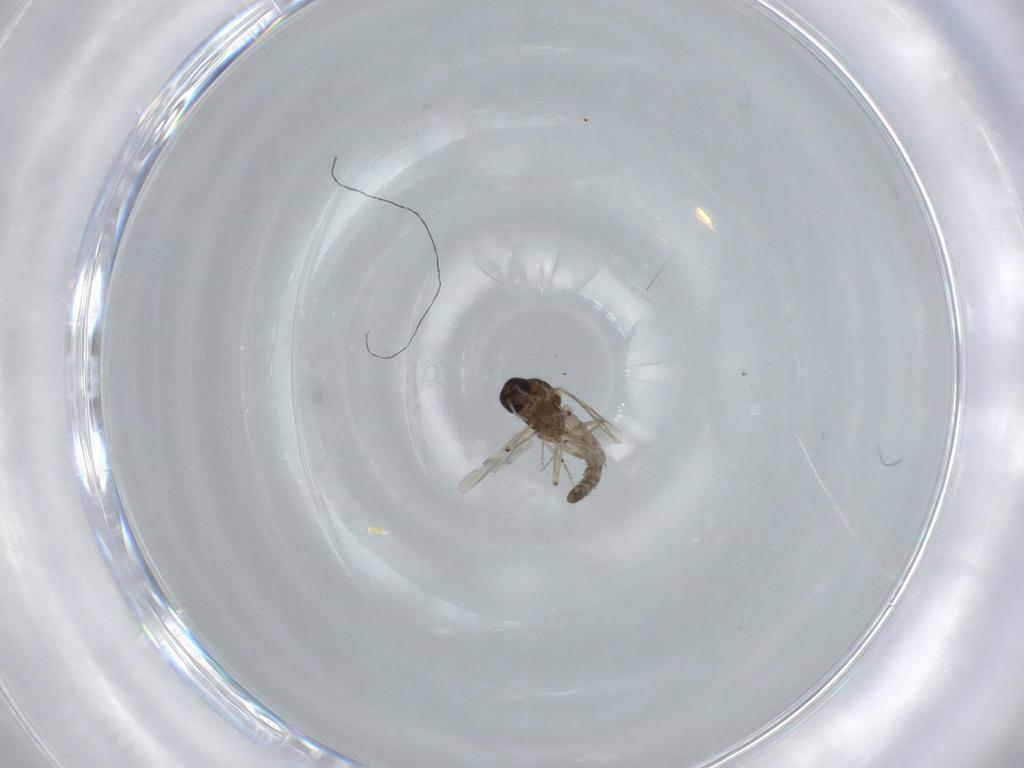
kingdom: Animalia
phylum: Arthropoda
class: Insecta
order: Diptera
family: Ceratopogonidae
